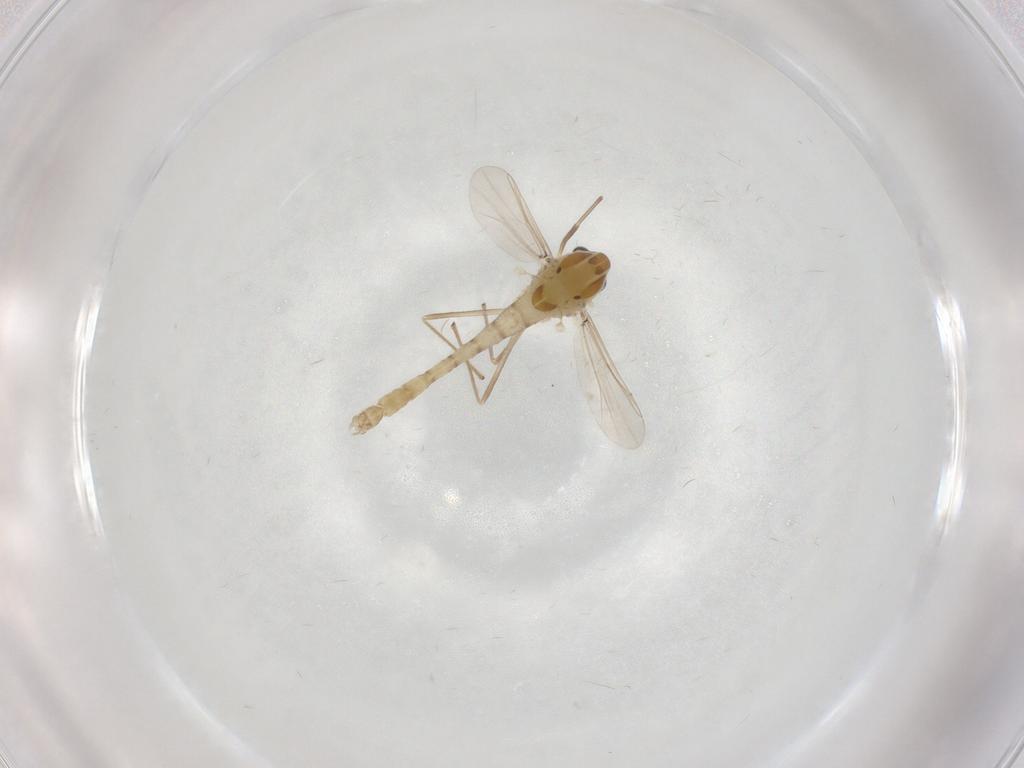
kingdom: Animalia
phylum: Arthropoda
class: Insecta
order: Diptera
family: Chironomidae
